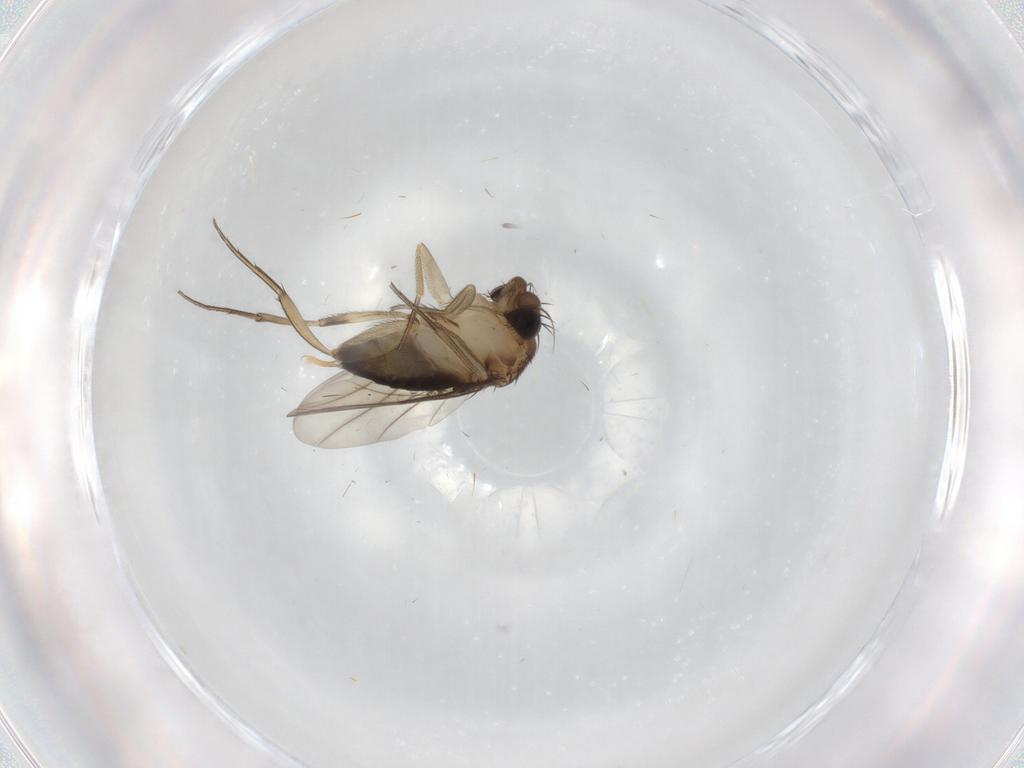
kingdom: Animalia
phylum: Arthropoda
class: Insecta
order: Diptera
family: Phoridae
